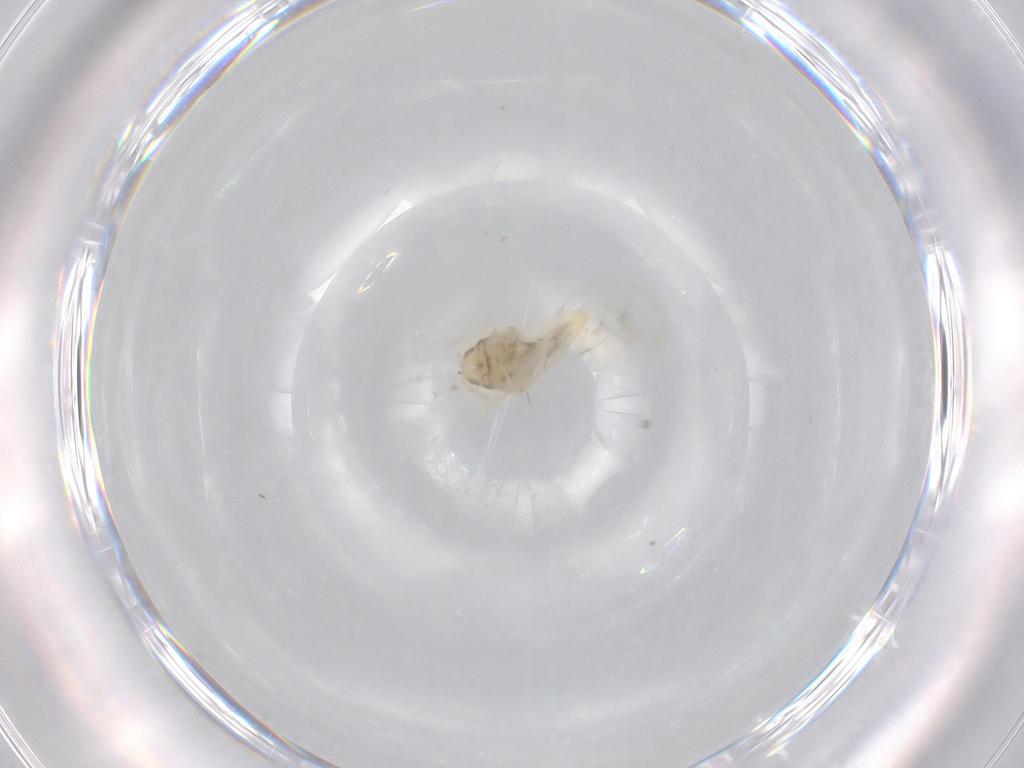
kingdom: Animalia
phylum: Arthropoda
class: Insecta
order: Hemiptera
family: Aleyrodidae
